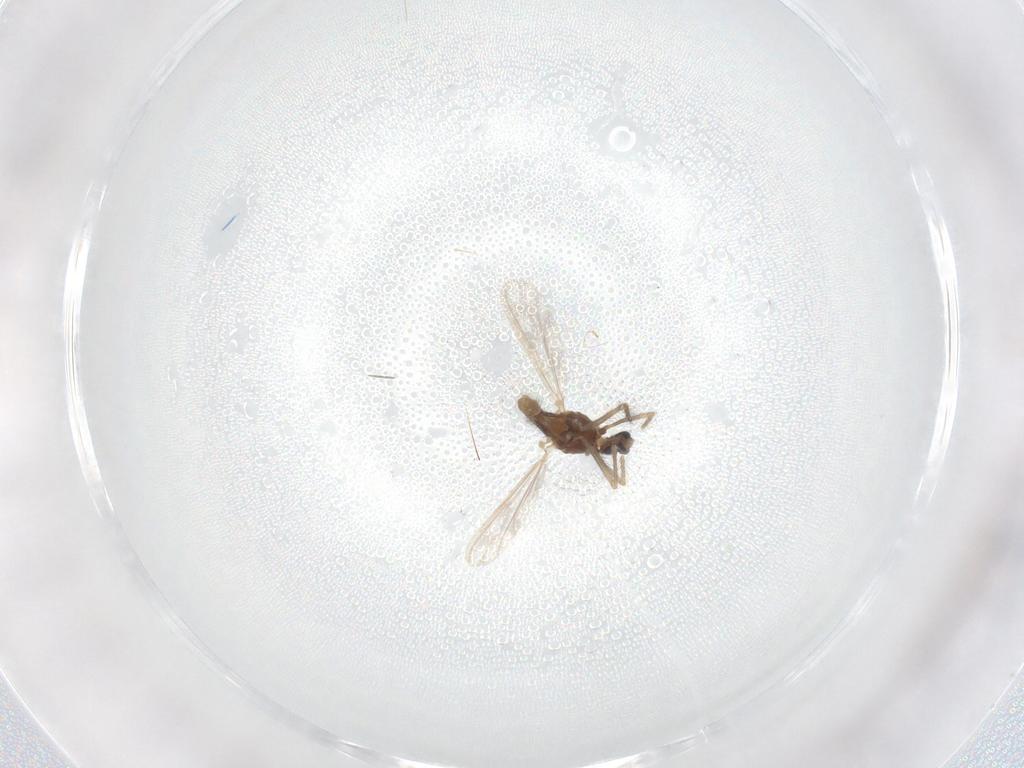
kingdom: Animalia
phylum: Arthropoda
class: Insecta
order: Diptera
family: Chironomidae
